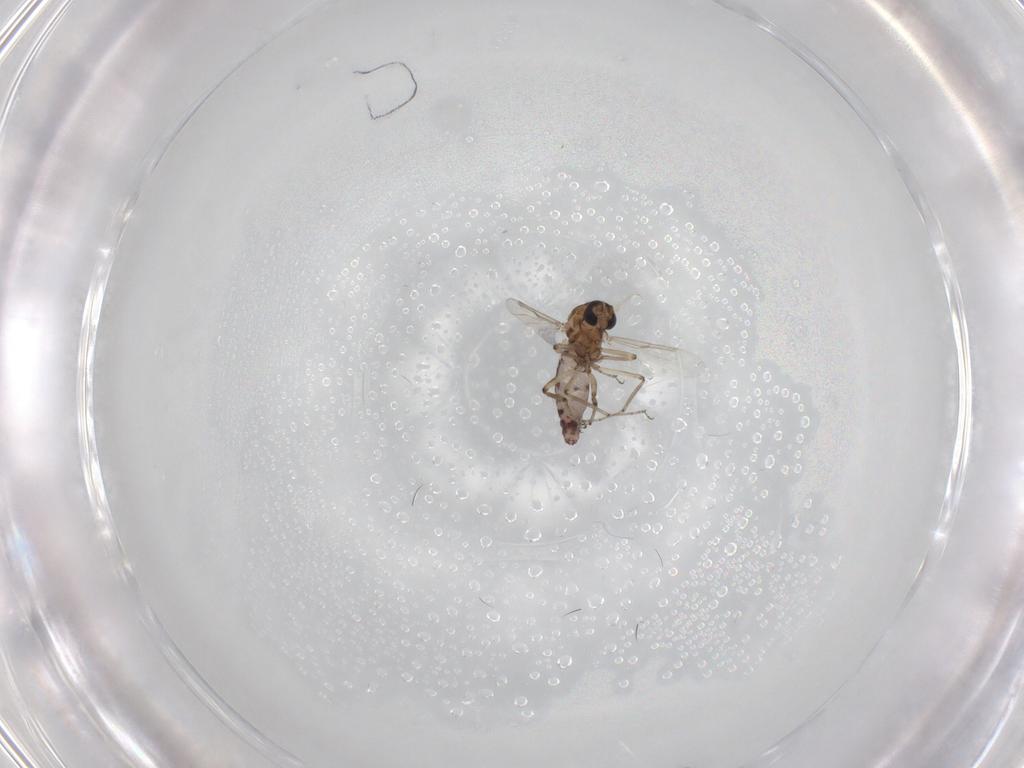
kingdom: Animalia
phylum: Arthropoda
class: Insecta
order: Diptera
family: Ceratopogonidae
